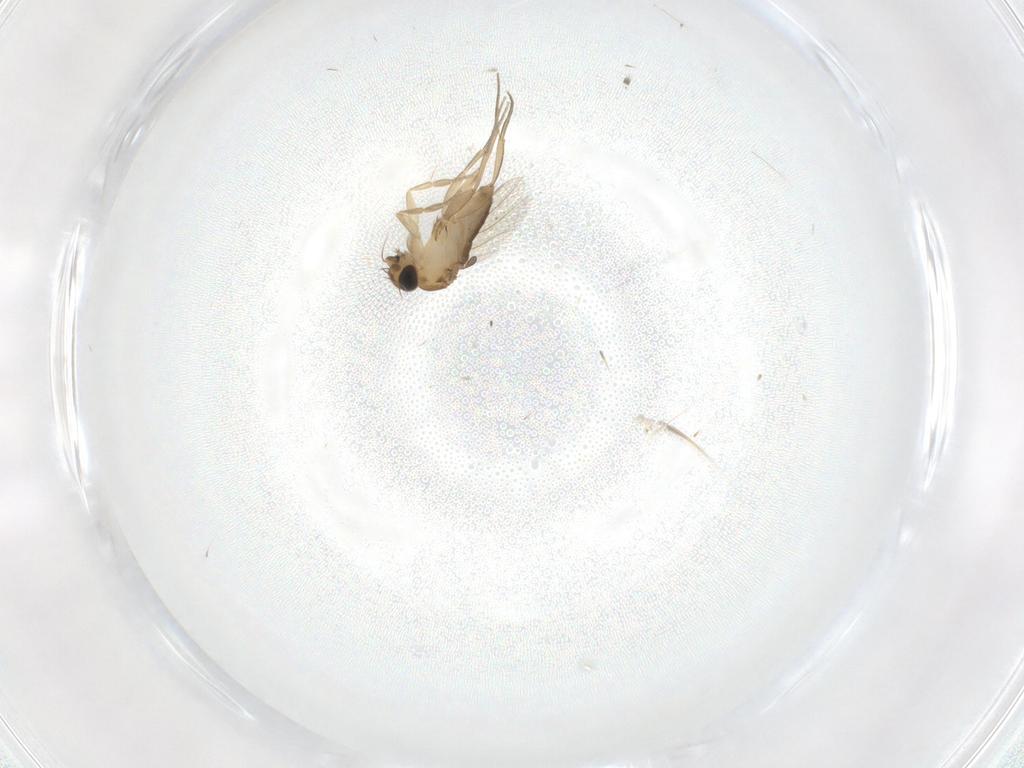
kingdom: Animalia
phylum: Arthropoda
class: Insecta
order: Diptera
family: Phoridae
